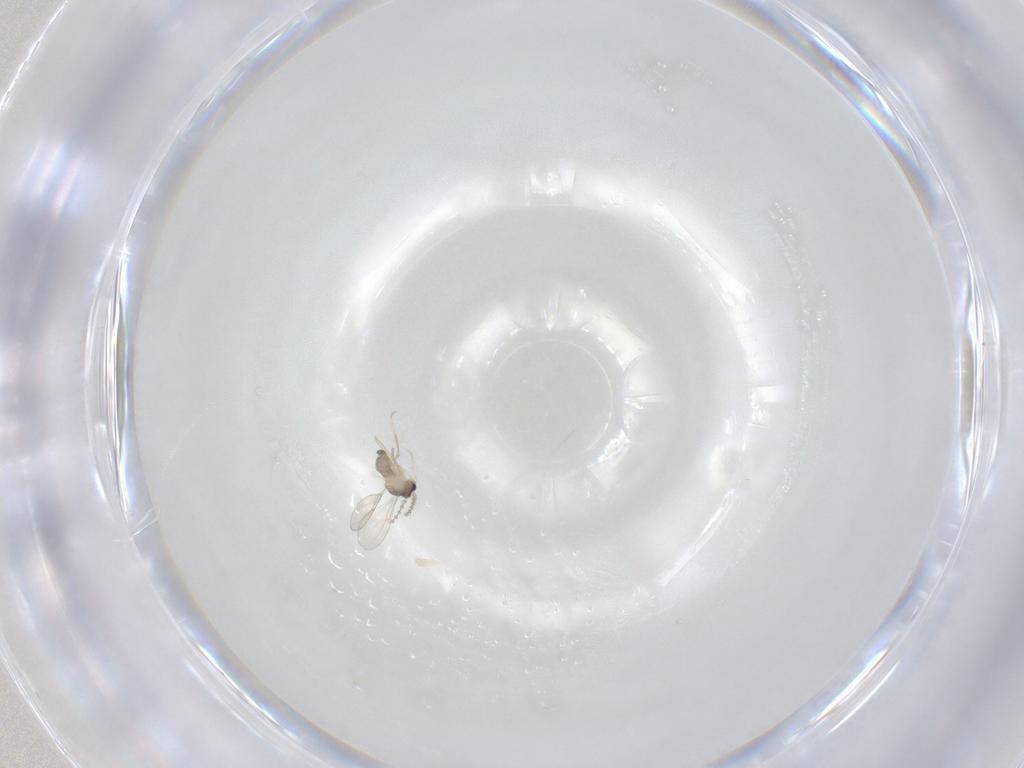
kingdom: Animalia
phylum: Arthropoda
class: Insecta
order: Diptera
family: Cecidomyiidae
